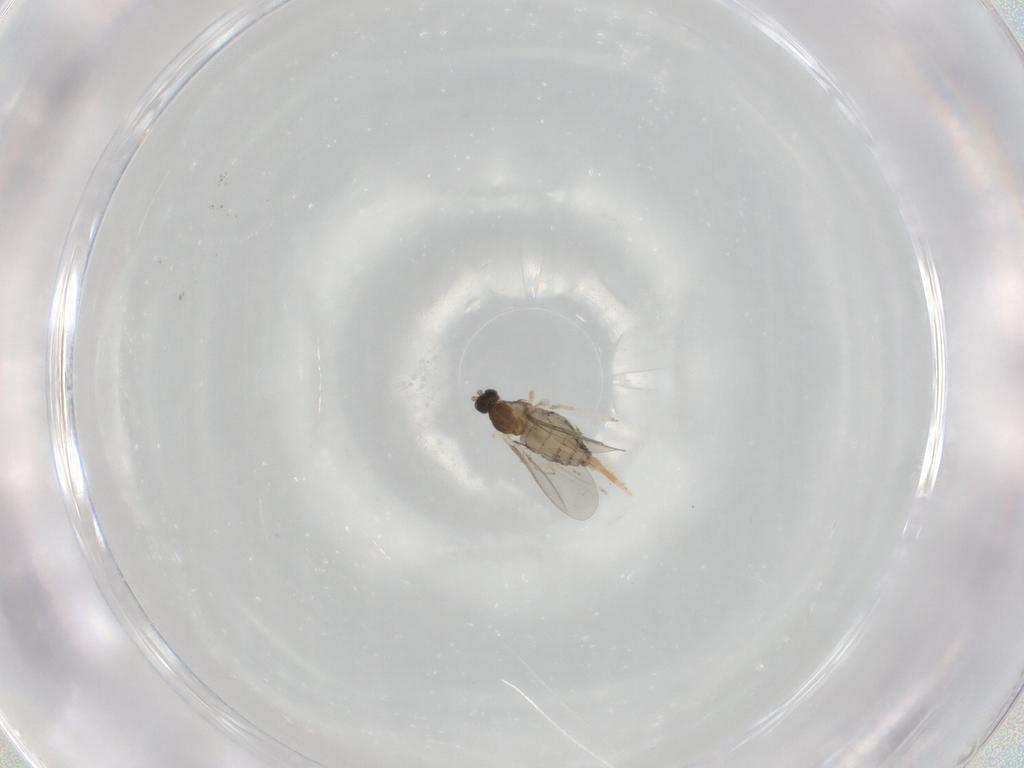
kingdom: Animalia
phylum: Arthropoda
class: Insecta
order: Diptera
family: Cecidomyiidae
